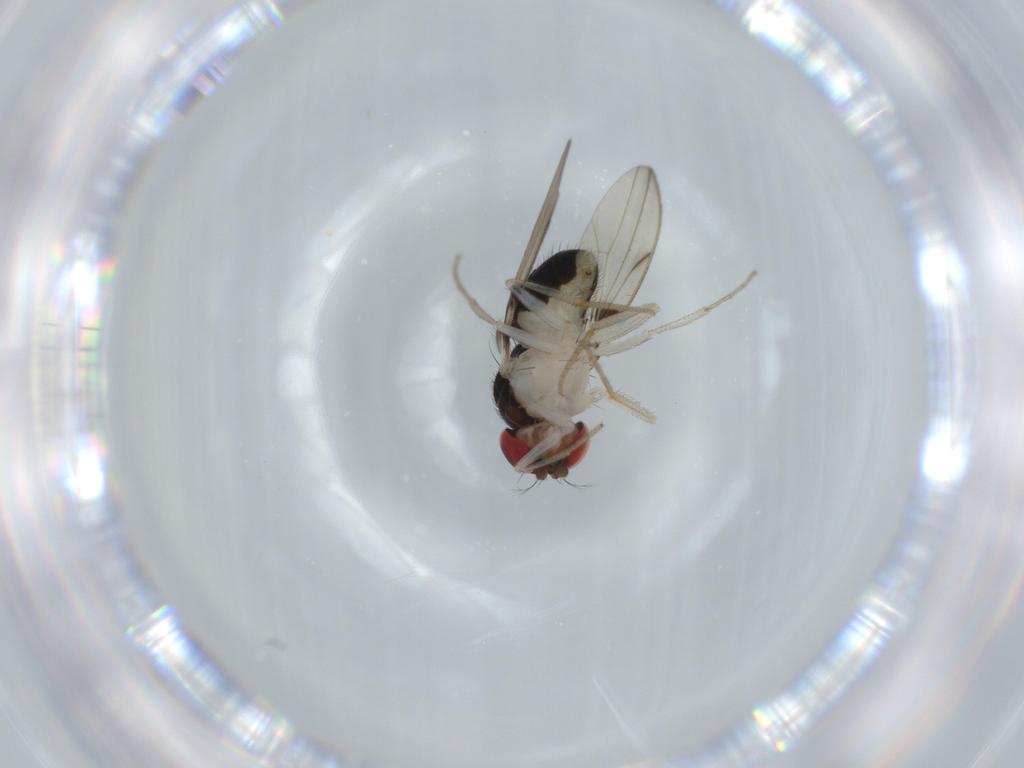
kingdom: Animalia
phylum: Arthropoda
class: Insecta
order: Diptera
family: Drosophilidae
